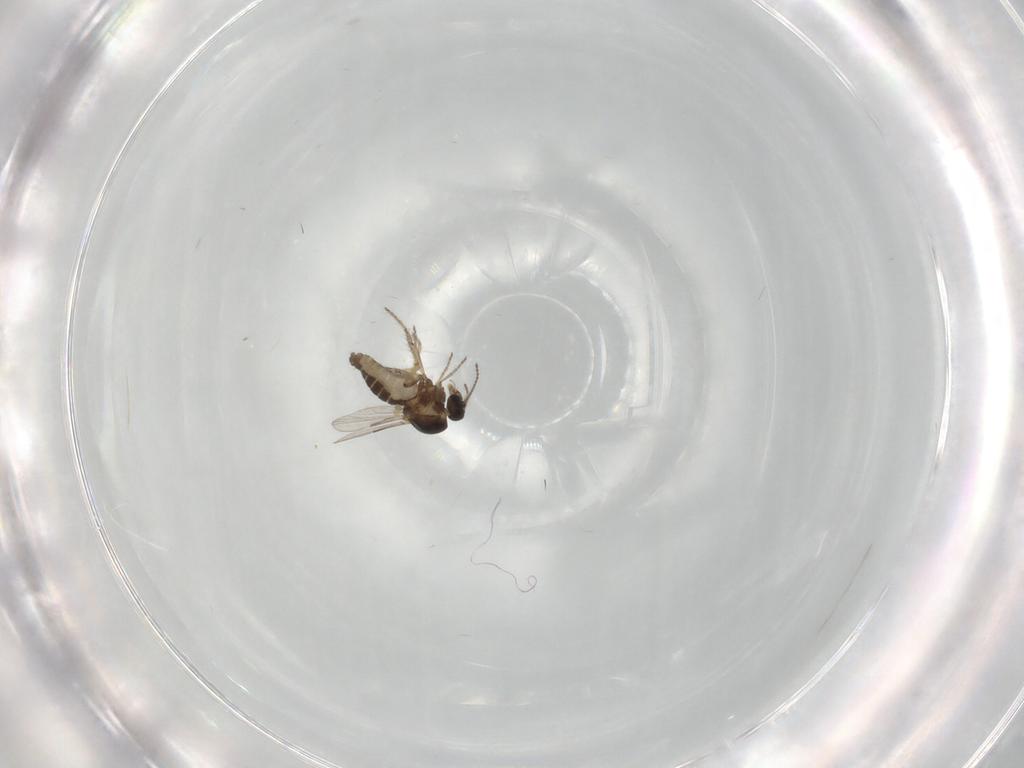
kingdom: Animalia
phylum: Arthropoda
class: Insecta
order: Diptera
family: Ceratopogonidae
